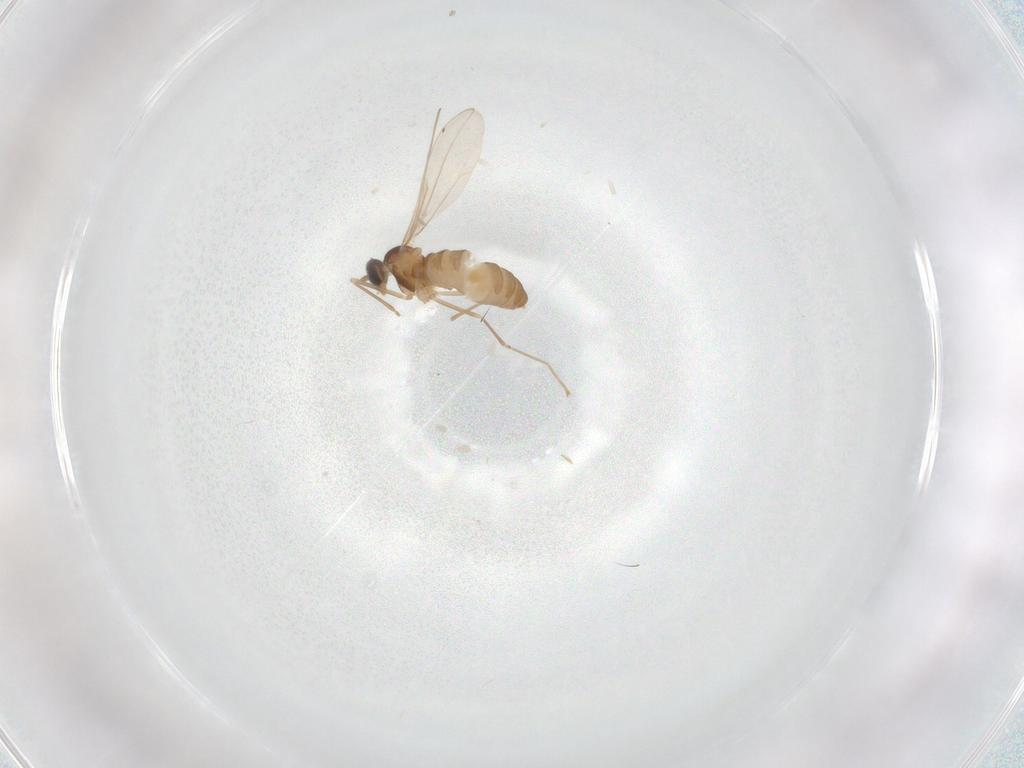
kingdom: Animalia
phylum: Arthropoda
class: Insecta
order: Diptera
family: Cecidomyiidae
